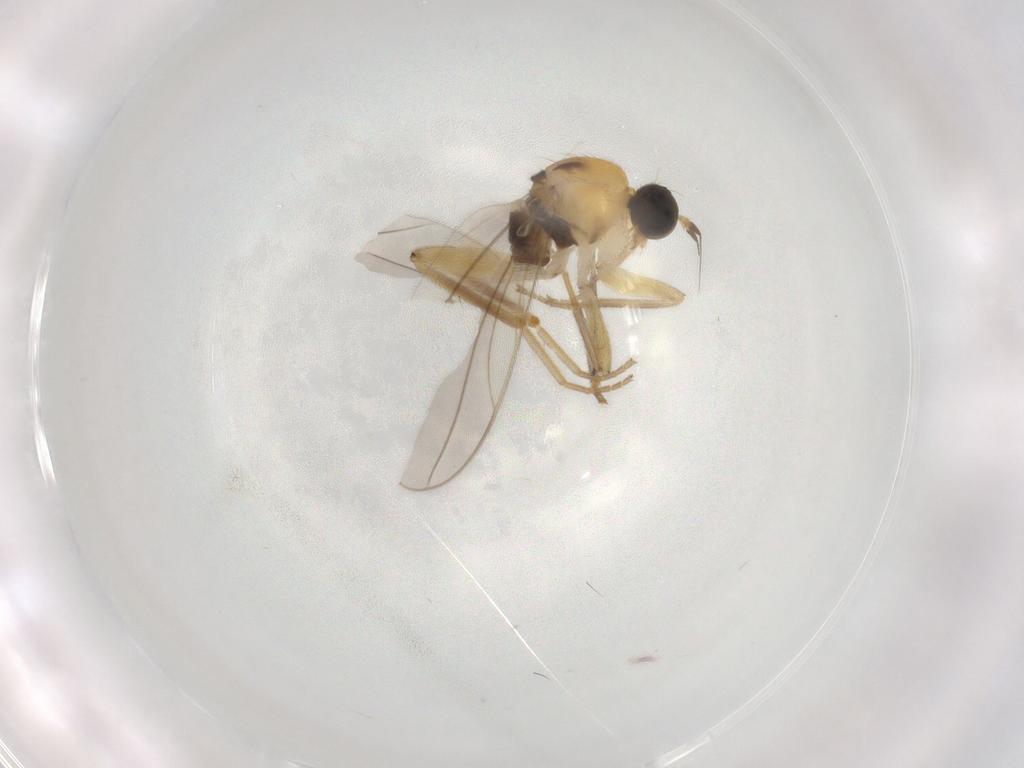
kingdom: Animalia
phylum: Arthropoda
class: Insecta
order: Diptera
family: Hybotidae
